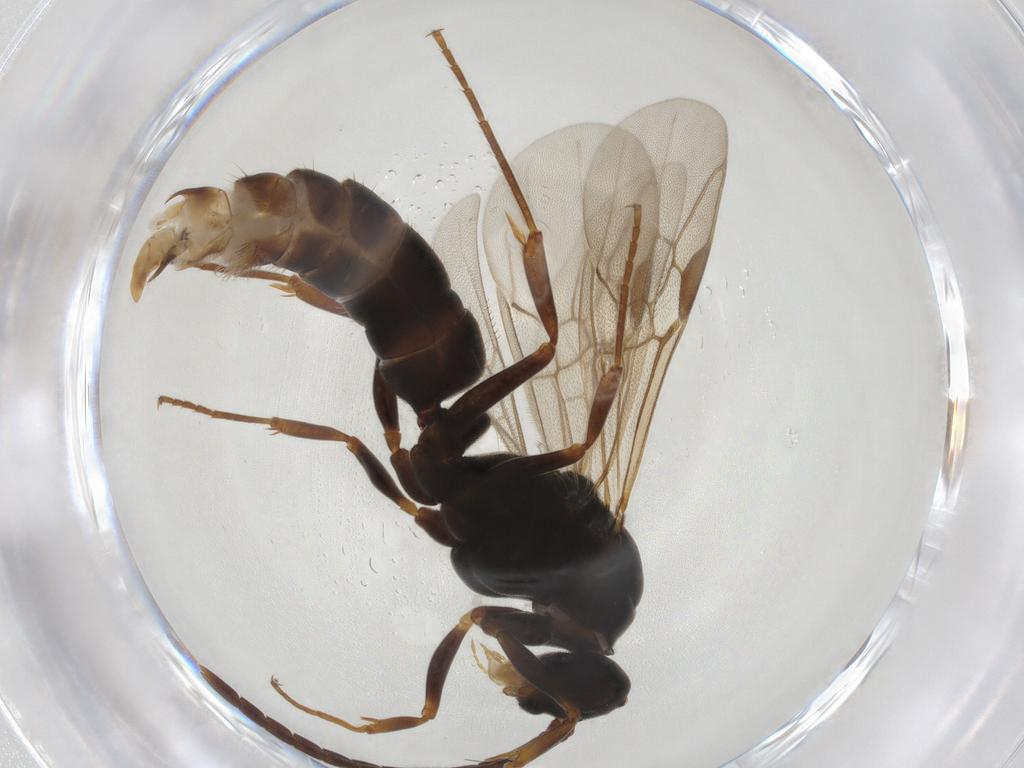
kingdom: Animalia
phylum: Arthropoda
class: Insecta
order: Hymenoptera
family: Formicidae
